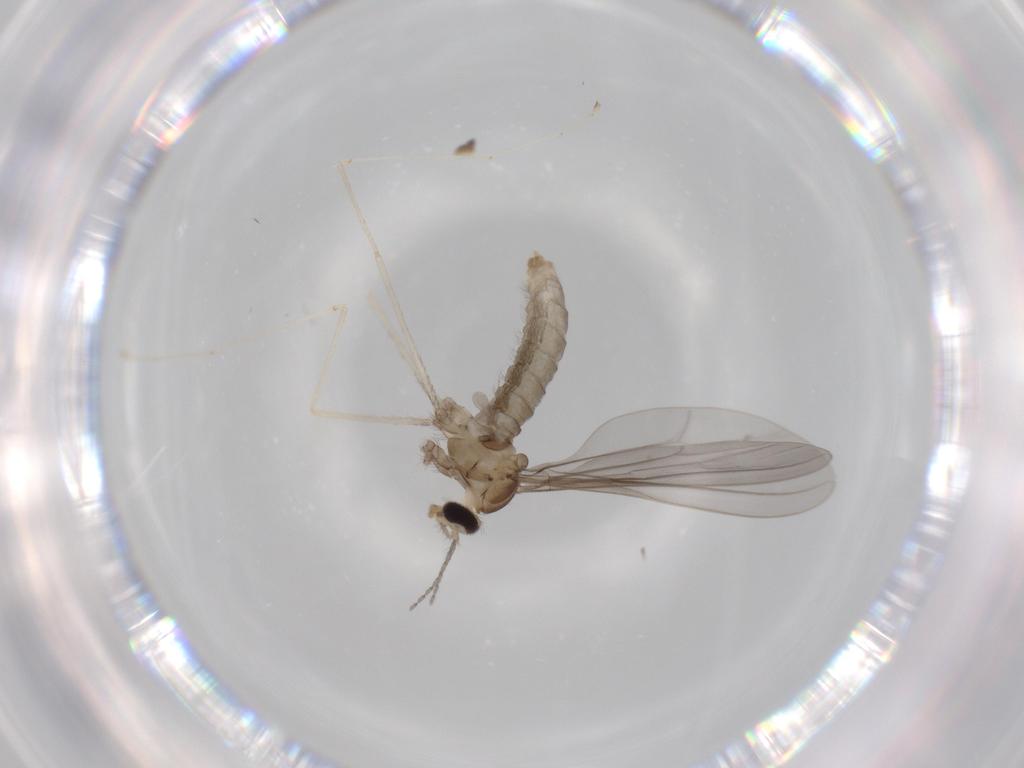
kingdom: Animalia
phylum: Arthropoda
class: Insecta
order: Diptera
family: Cecidomyiidae
